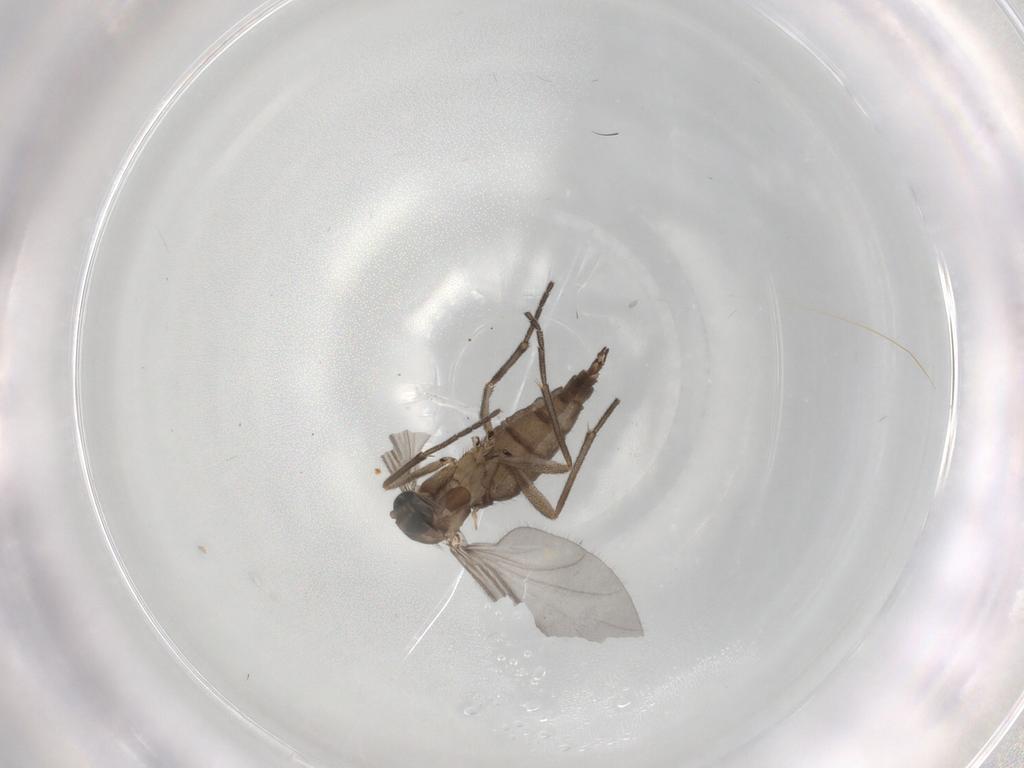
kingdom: Animalia
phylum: Arthropoda
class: Insecta
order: Diptera
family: Sciaridae
